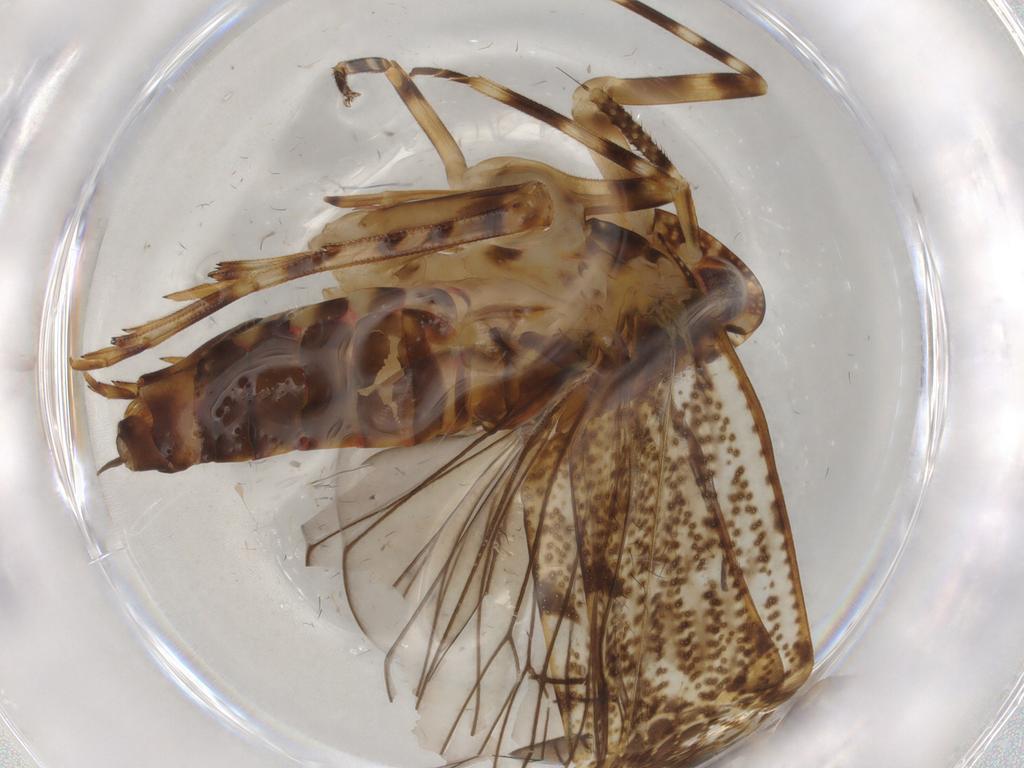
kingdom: Animalia
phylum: Arthropoda
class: Insecta
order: Hemiptera
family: Delphacidae
